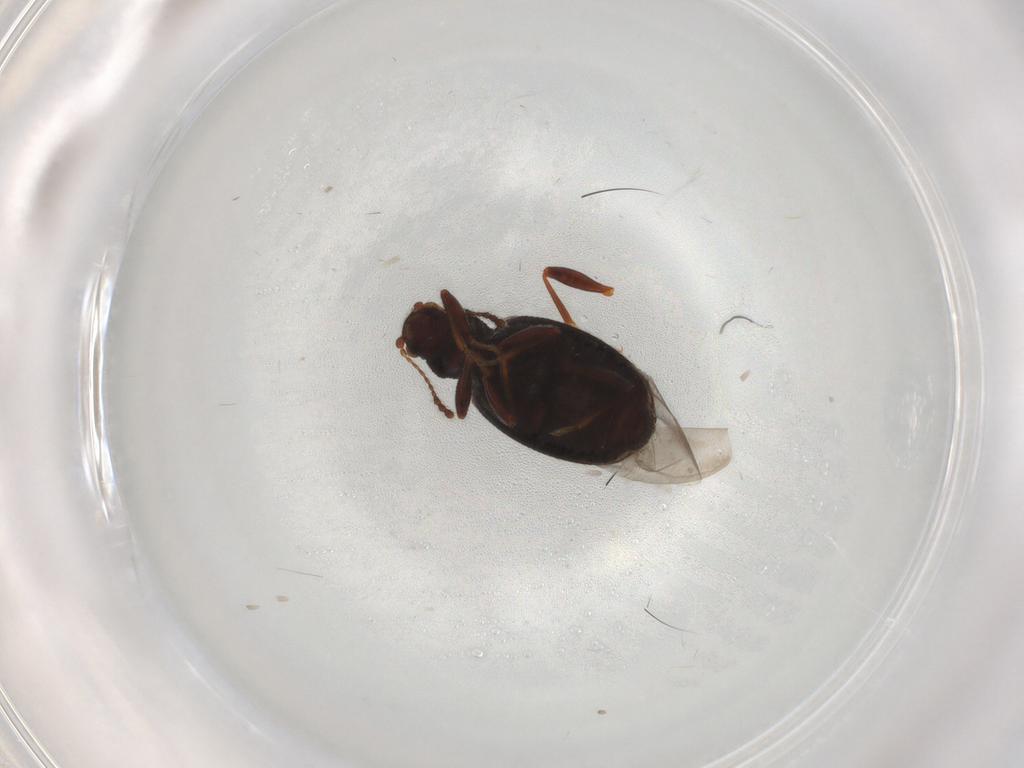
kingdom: Animalia
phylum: Arthropoda
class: Insecta
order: Coleoptera
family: Latridiidae
